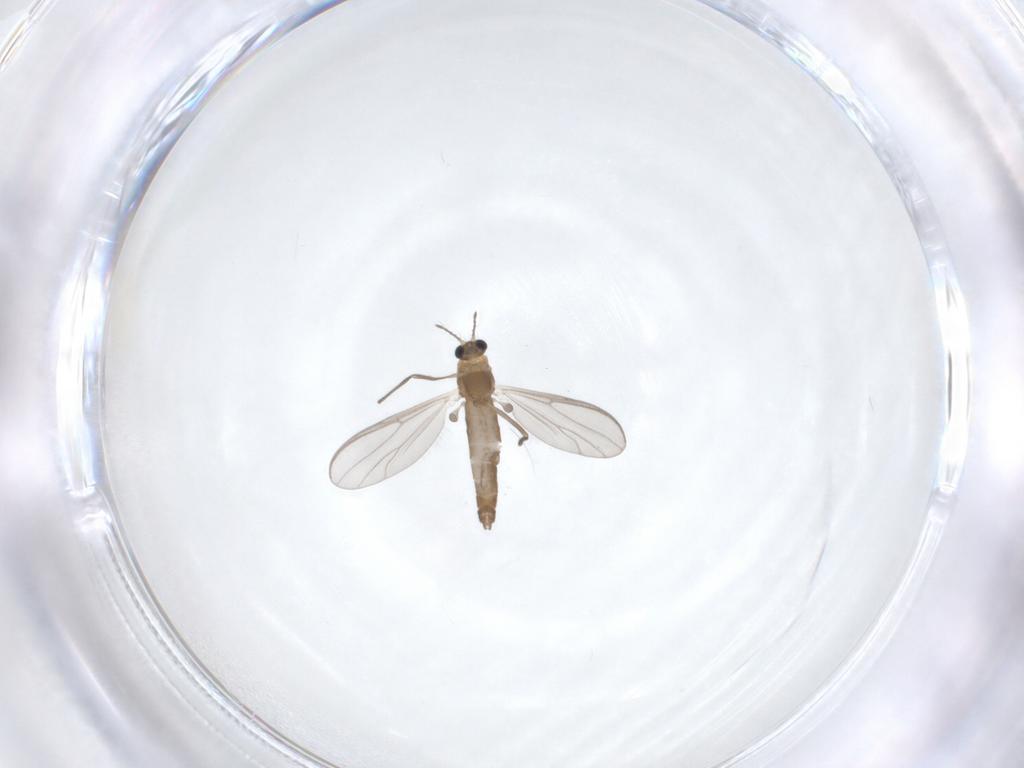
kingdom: Animalia
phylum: Arthropoda
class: Insecta
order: Diptera
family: Chironomidae
